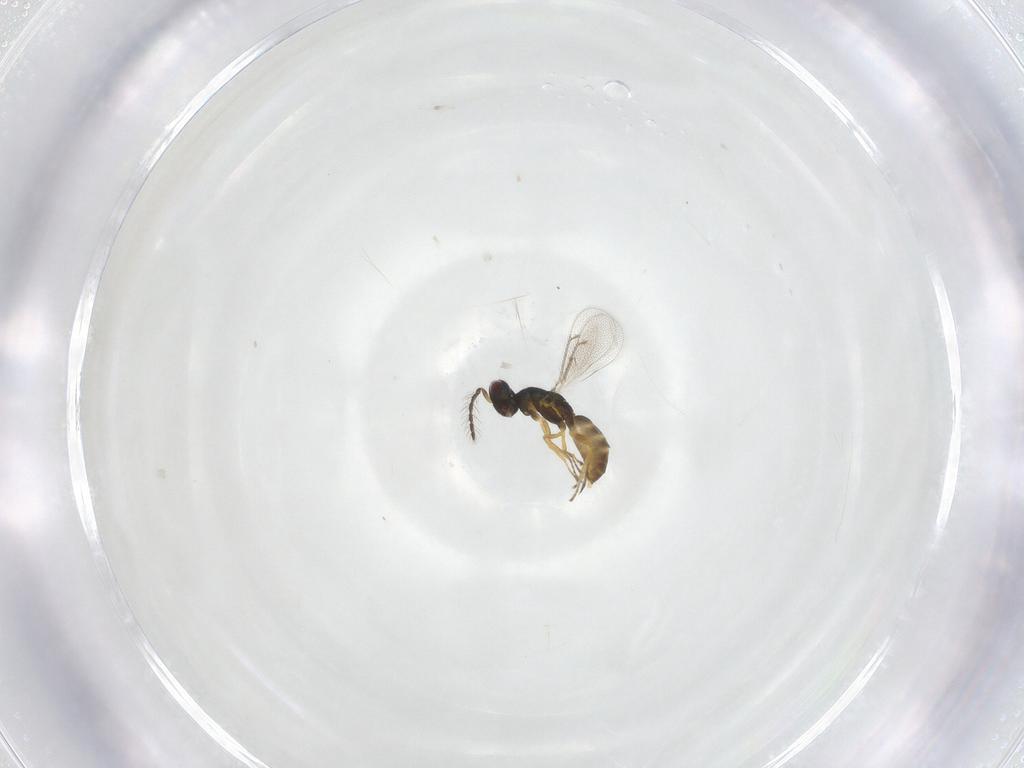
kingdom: Animalia
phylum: Arthropoda
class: Insecta
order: Hymenoptera
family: Eulophidae
